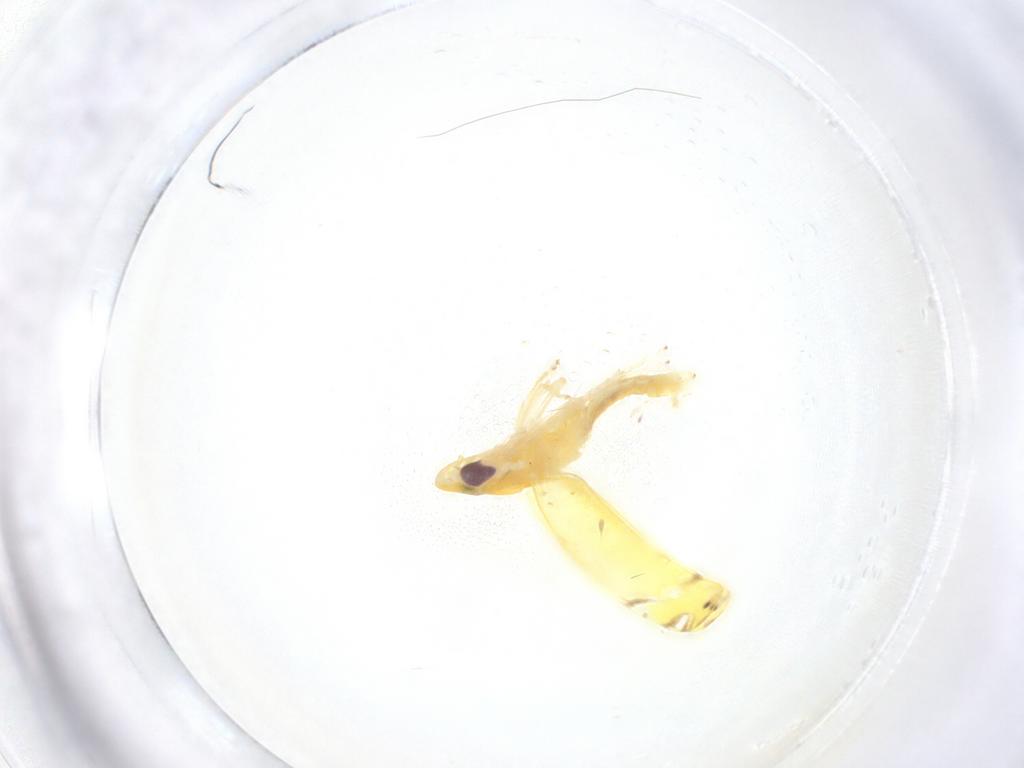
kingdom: Animalia
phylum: Arthropoda
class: Insecta
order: Hemiptera
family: Cicadellidae
